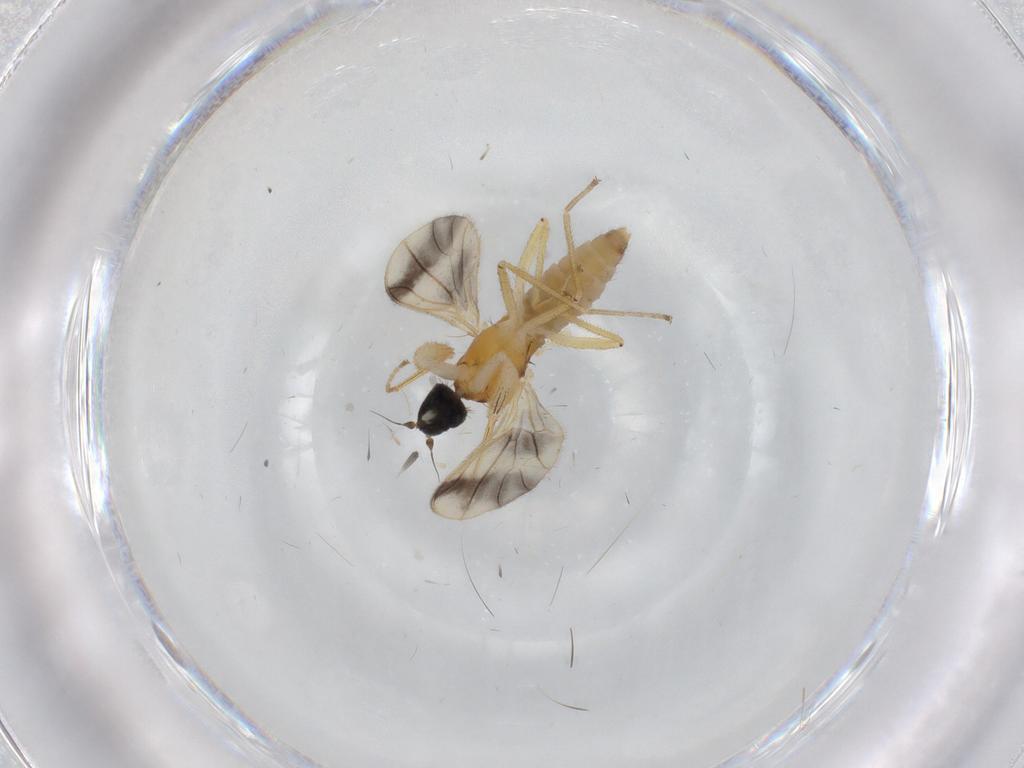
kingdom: Animalia
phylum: Arthropoda
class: Insecta
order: Diptera
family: Empididae
